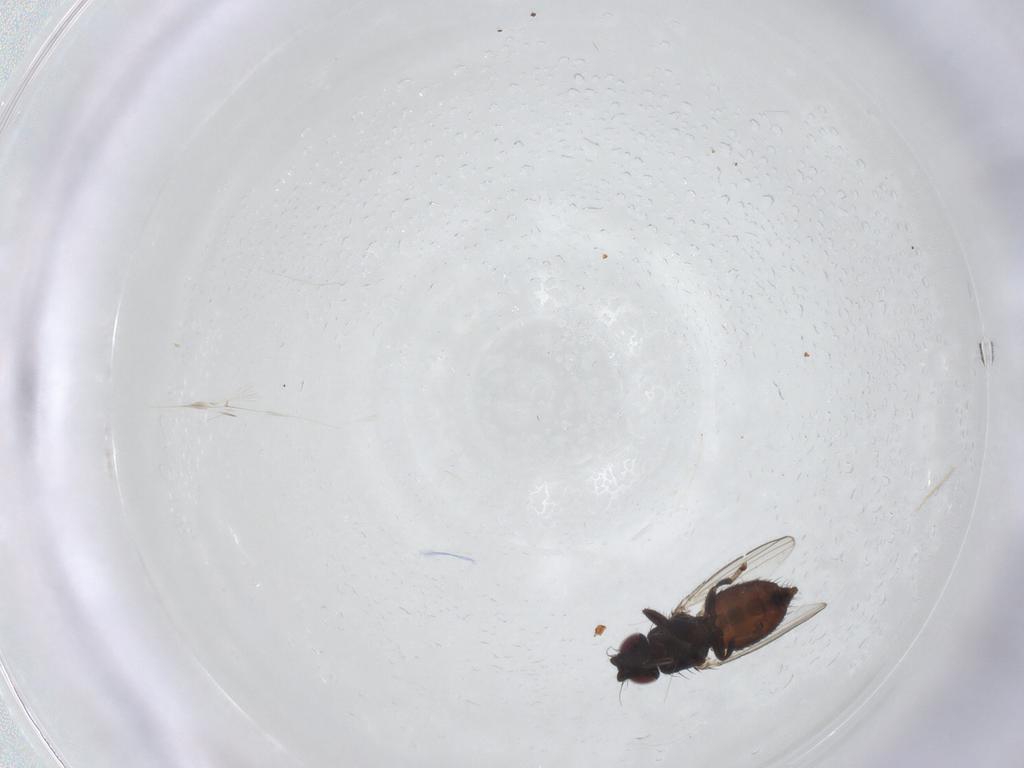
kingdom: Animalia
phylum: Arthropoda
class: Insecta
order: Diptera
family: Milichiidae
